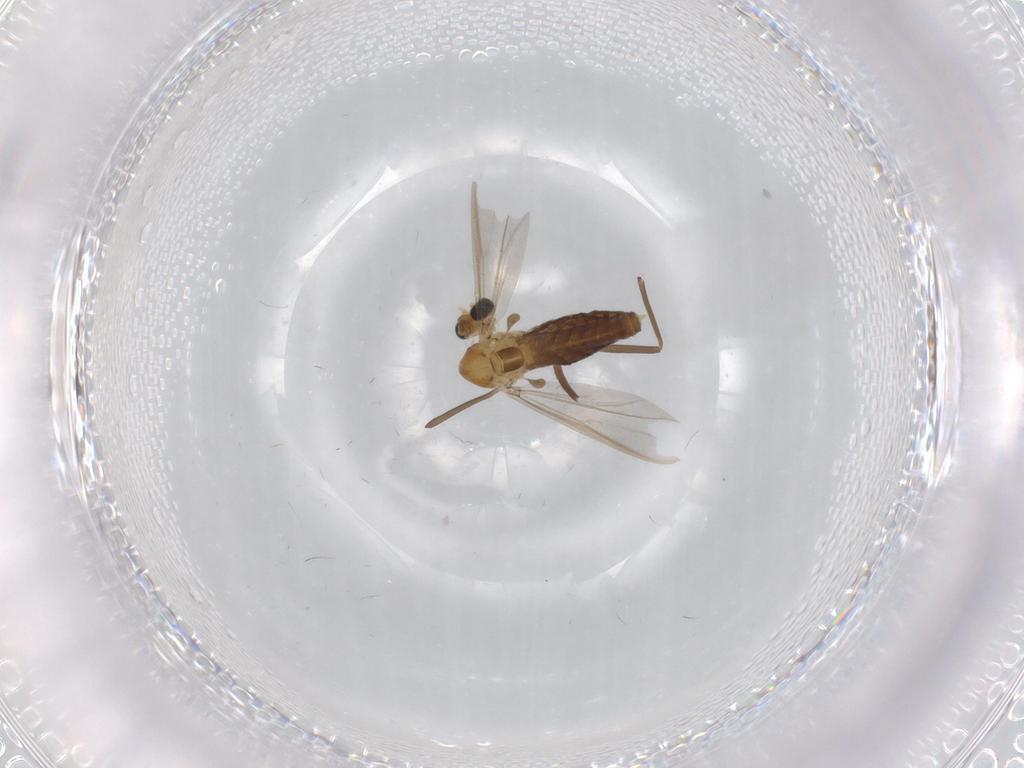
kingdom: Animalia
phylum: Arthropoda
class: Insecta
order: Diptera
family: Chironomidae
